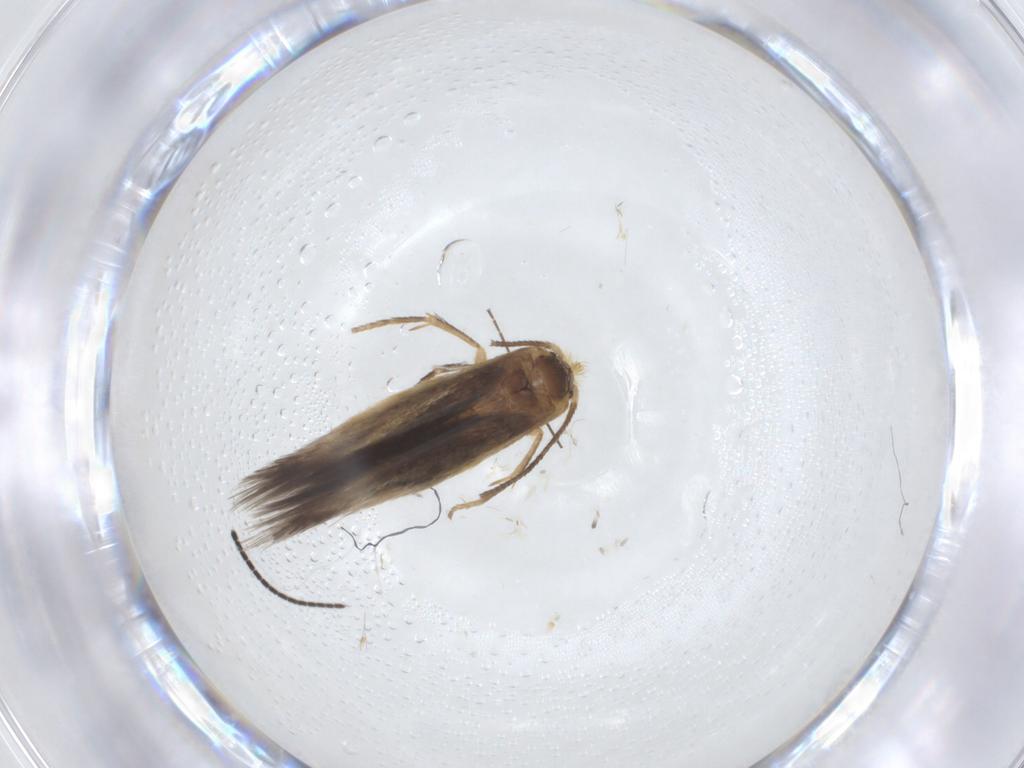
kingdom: Animalia
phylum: Arthropoda
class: Insecta
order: Lepidoptera
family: Nepticulidae
